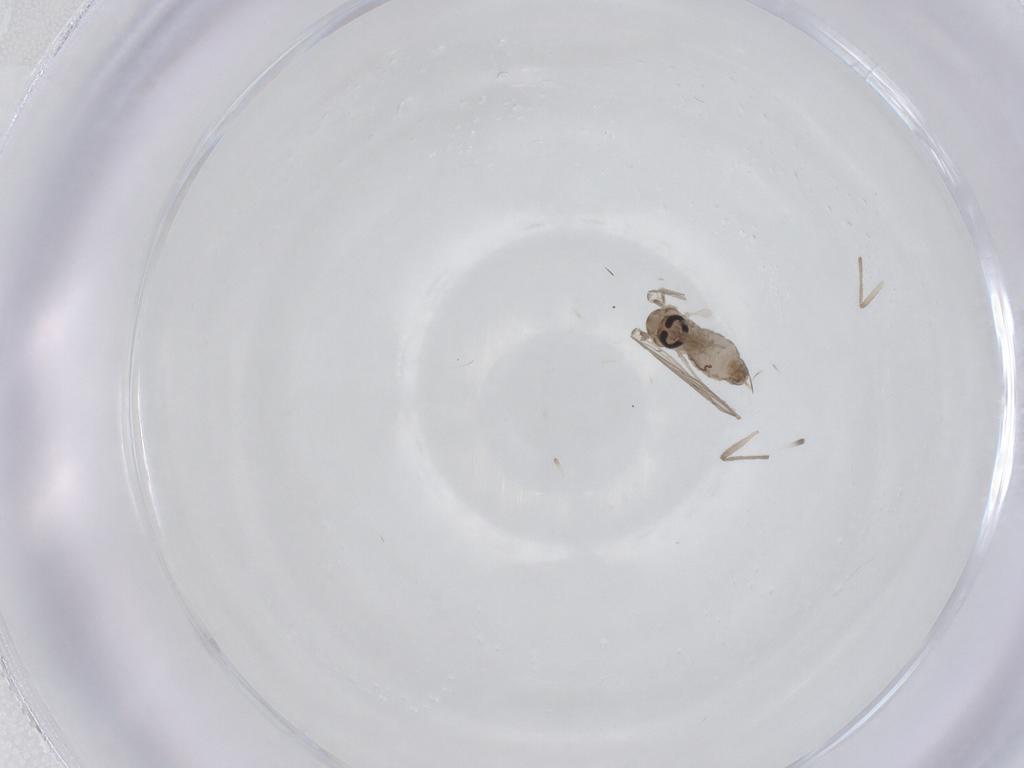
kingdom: Animalia
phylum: Arthropoda
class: Insecta
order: Diptera
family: Psychodidae
